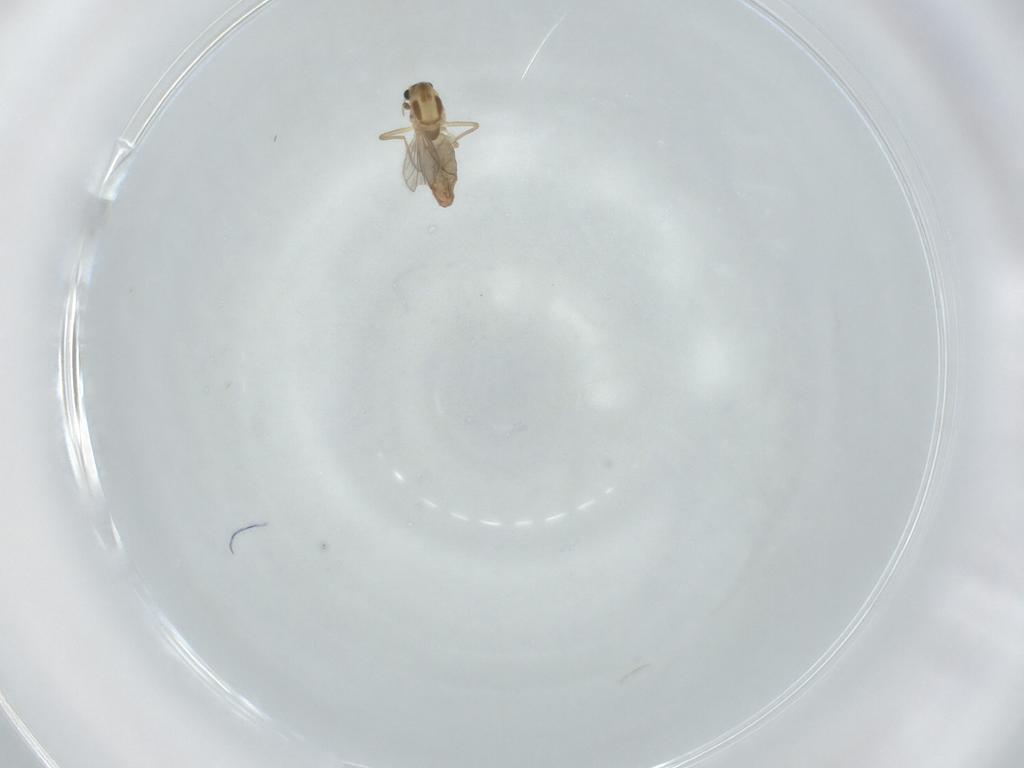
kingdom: Animalia
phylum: Arthropoda
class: Insecta
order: Diptera
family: Chironomidae
